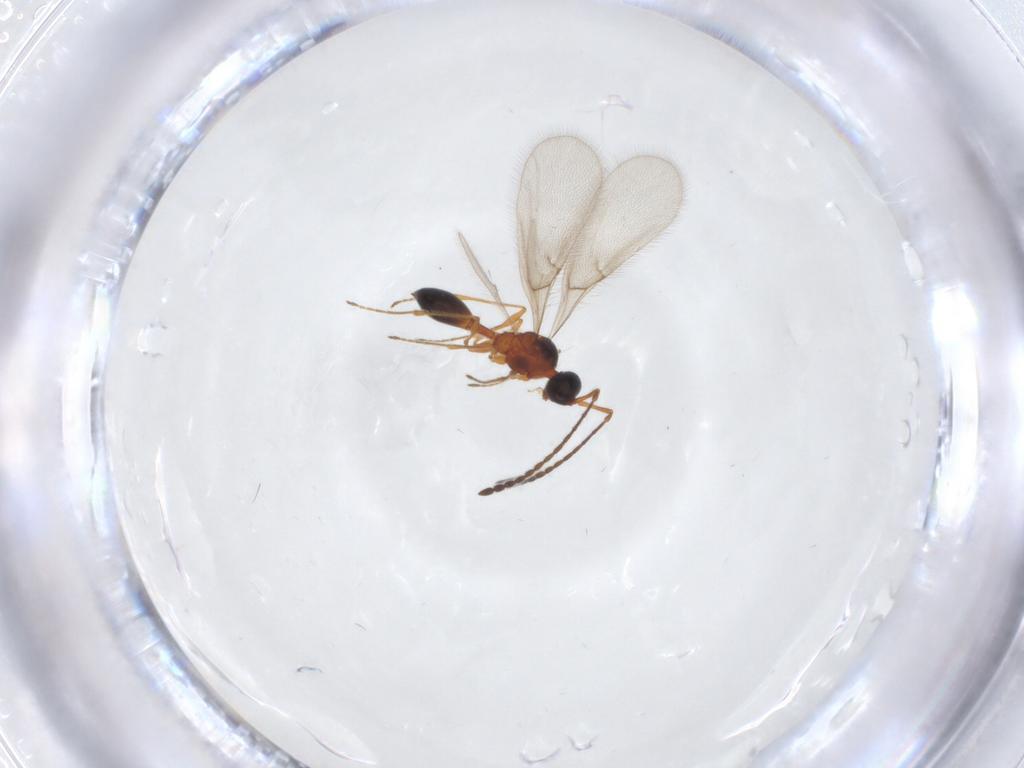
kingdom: Animalia
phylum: Arthropoda
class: Insecta
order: Hymenoptera
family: Diapriidae
